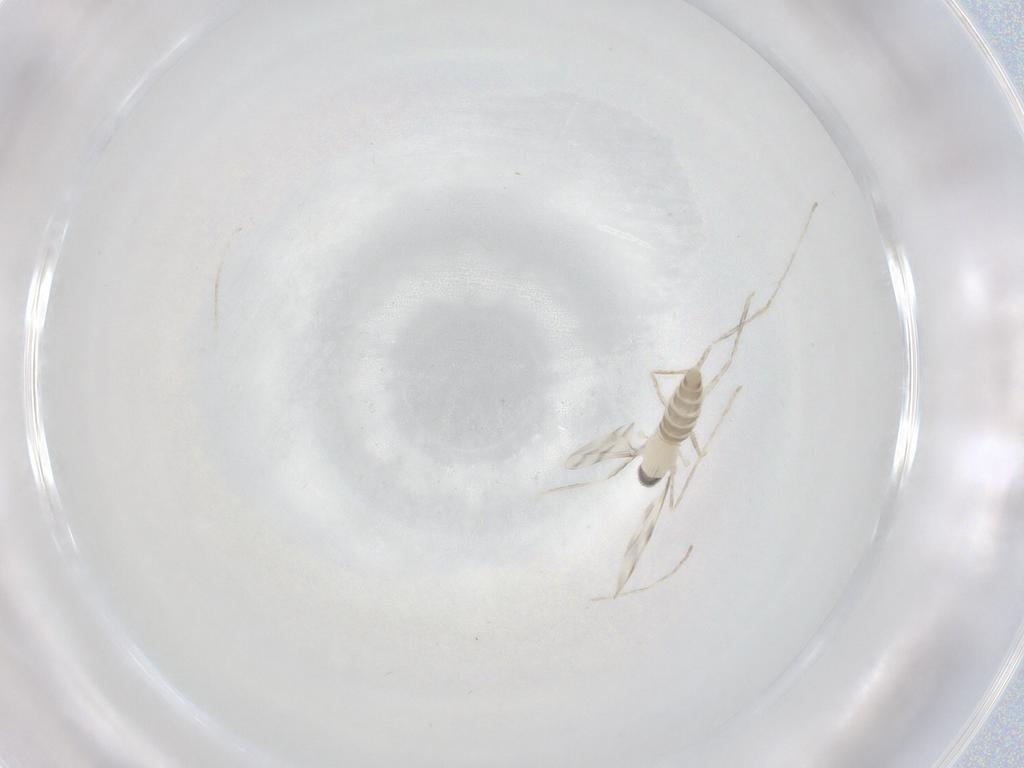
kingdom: Animalia
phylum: Arthropoda
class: Insecta
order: Diptera
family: Cecidomyiidae
